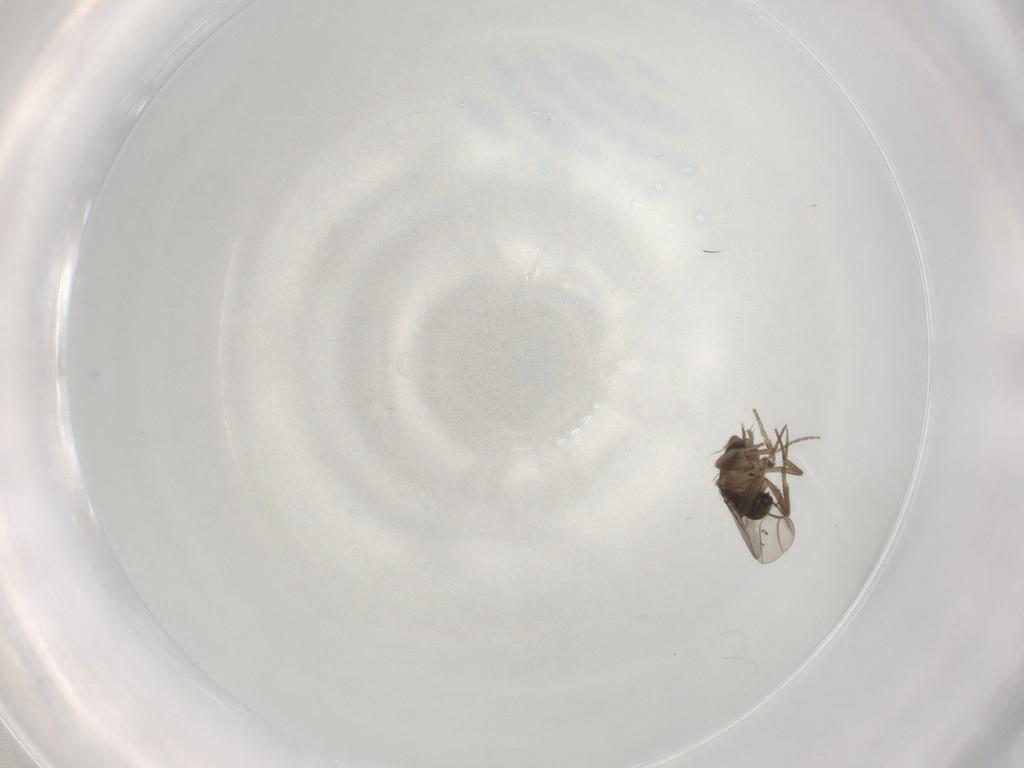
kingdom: Animalia
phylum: Arthropoda
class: Insecta
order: Diptera
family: Phoridae
